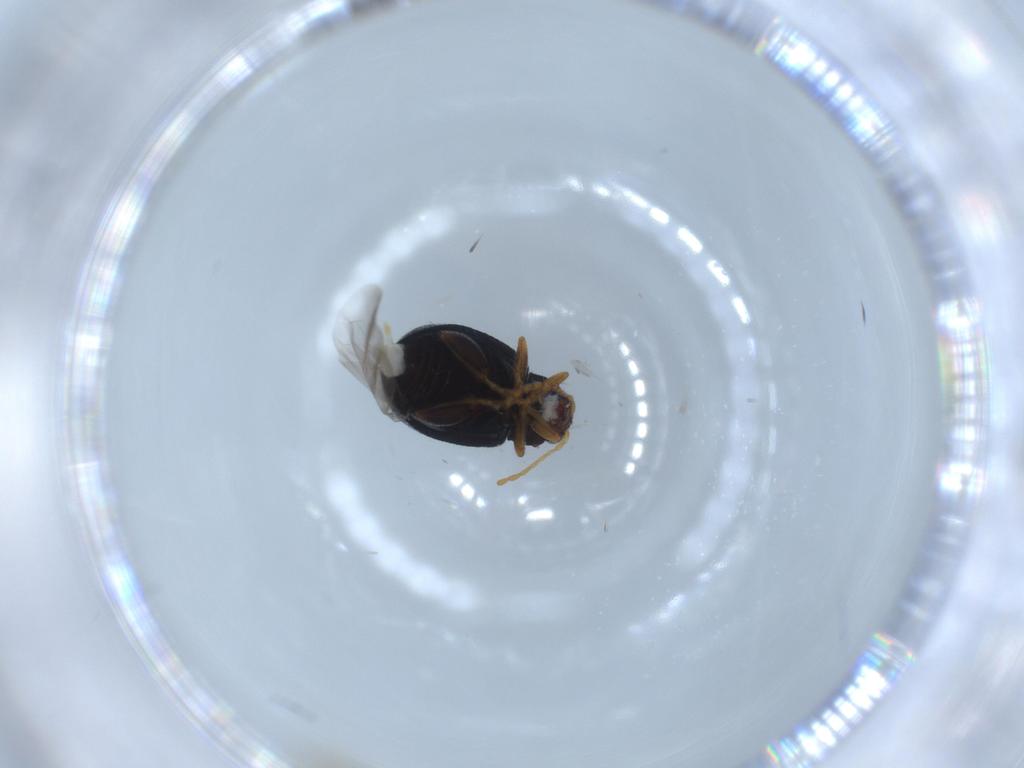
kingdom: Animalia
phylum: Arthropoda
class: Insecta
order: Coleoptera
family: Chrysomelidae
